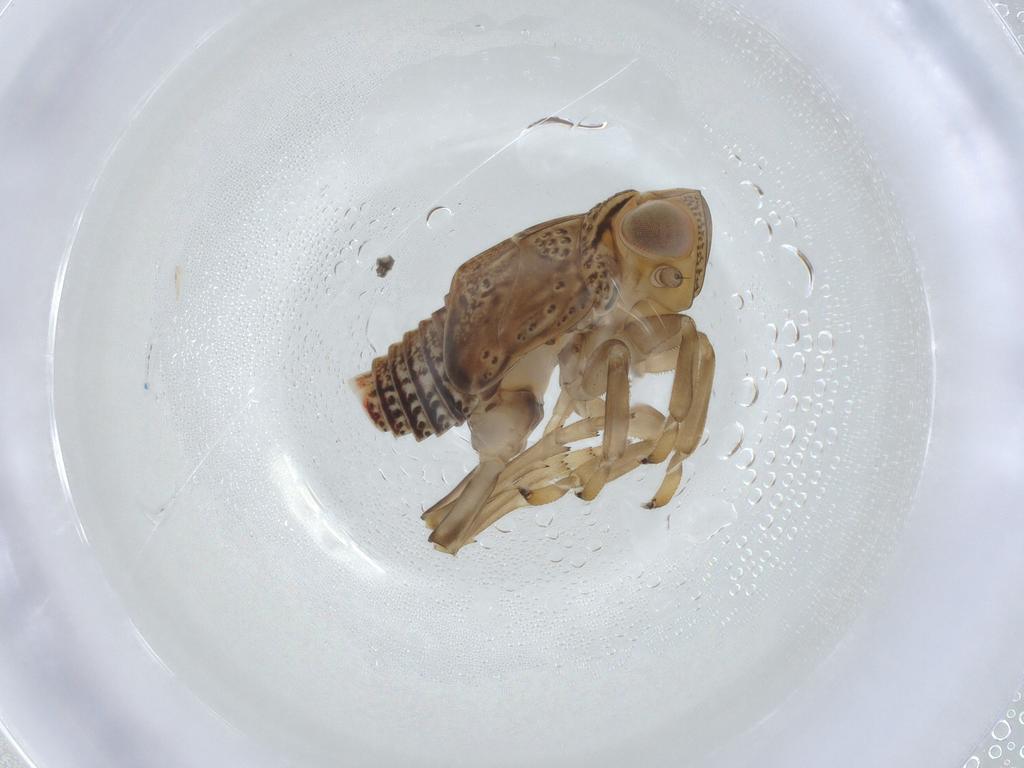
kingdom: Animalia
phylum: Arthropoda
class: Insecta
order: Hemiptera
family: Issidae
